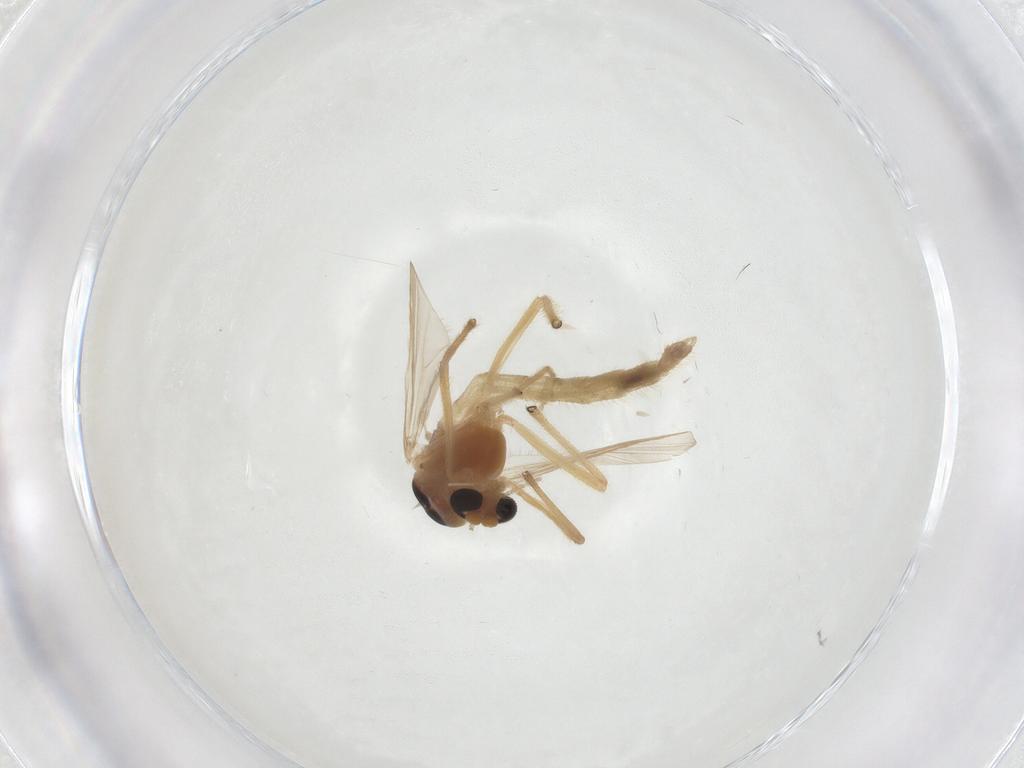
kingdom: Animalia
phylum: Arthropoda
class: Insecta
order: Diptera
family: Chironomidae
